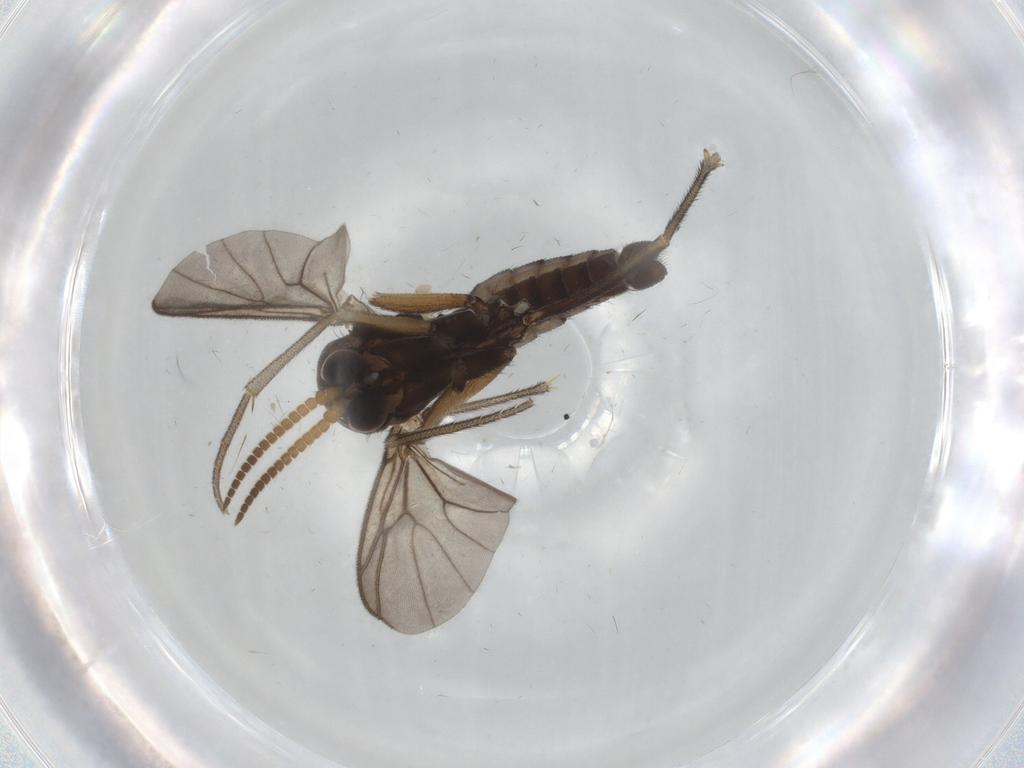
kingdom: Animalia
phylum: Arthropoda
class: Insecta
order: Diptera
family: Mycetophilidae
